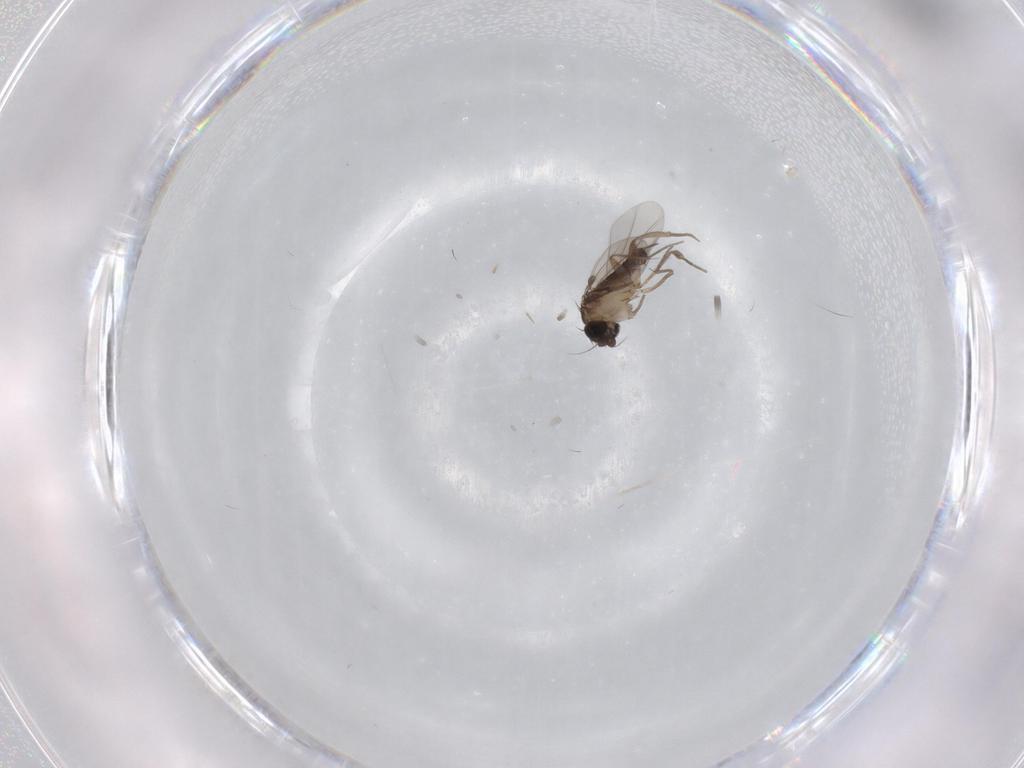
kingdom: Animalia
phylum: Arthropoda
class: Insecta
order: Diptera
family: Phoridae
